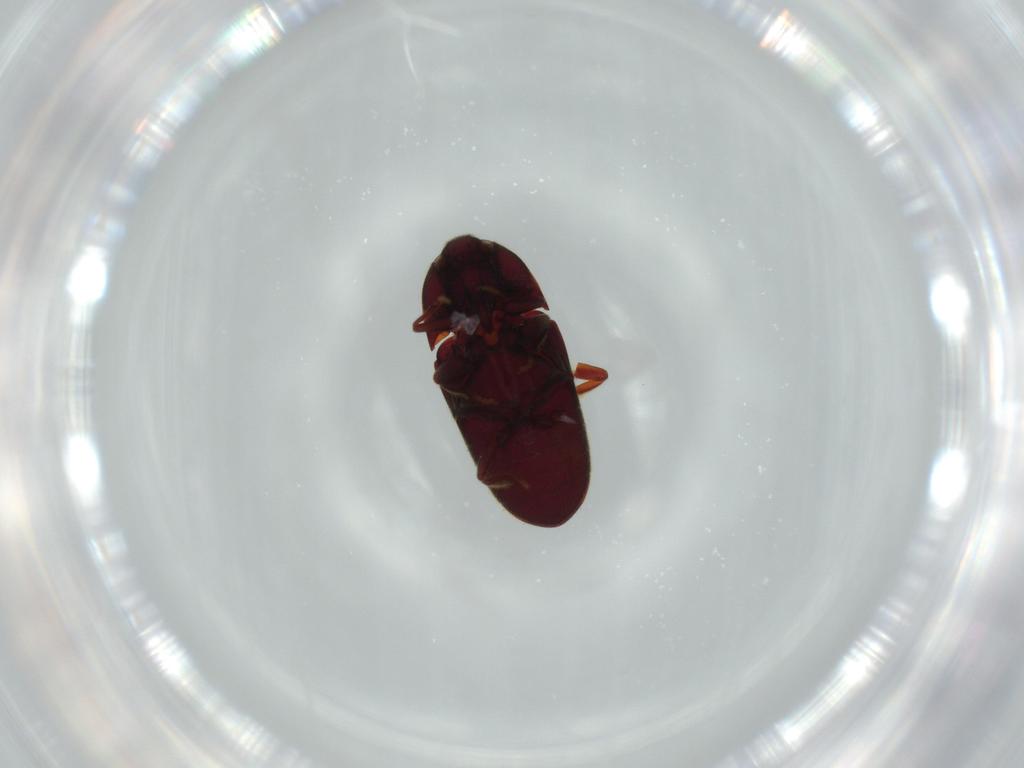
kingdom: Animalia
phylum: Arthropoda
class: Insecta
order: Coleoptera
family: Throscidae
